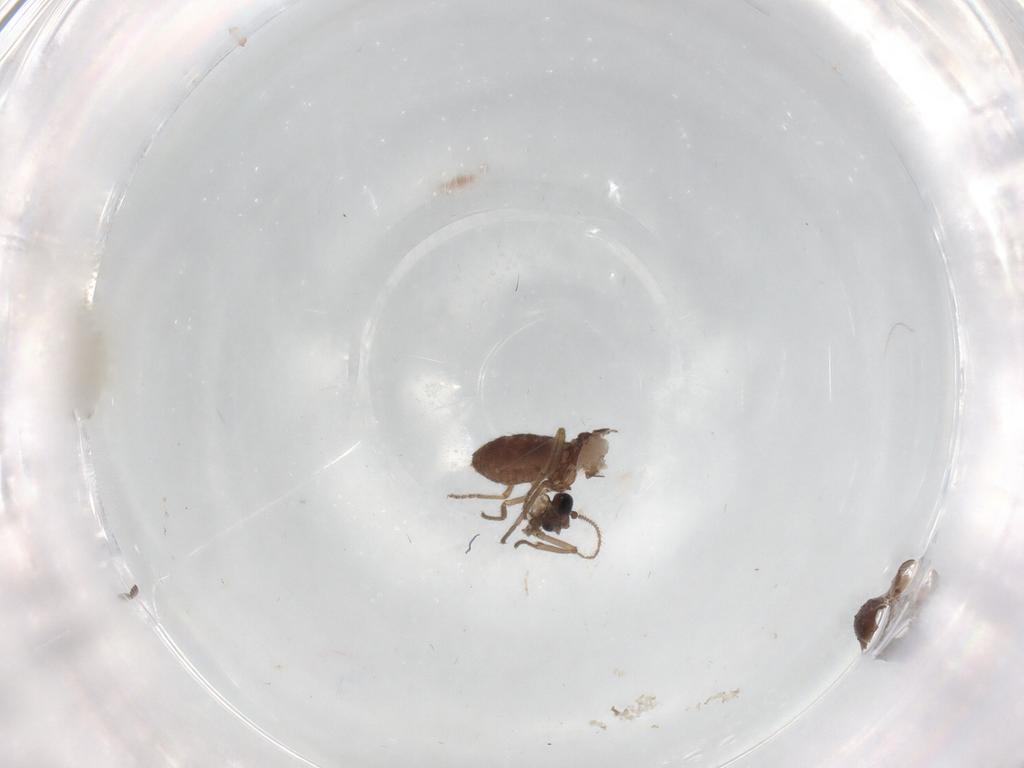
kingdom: Animalia
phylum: Arthropoda
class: Insecta
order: Diptera
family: Ceratopogonidae
